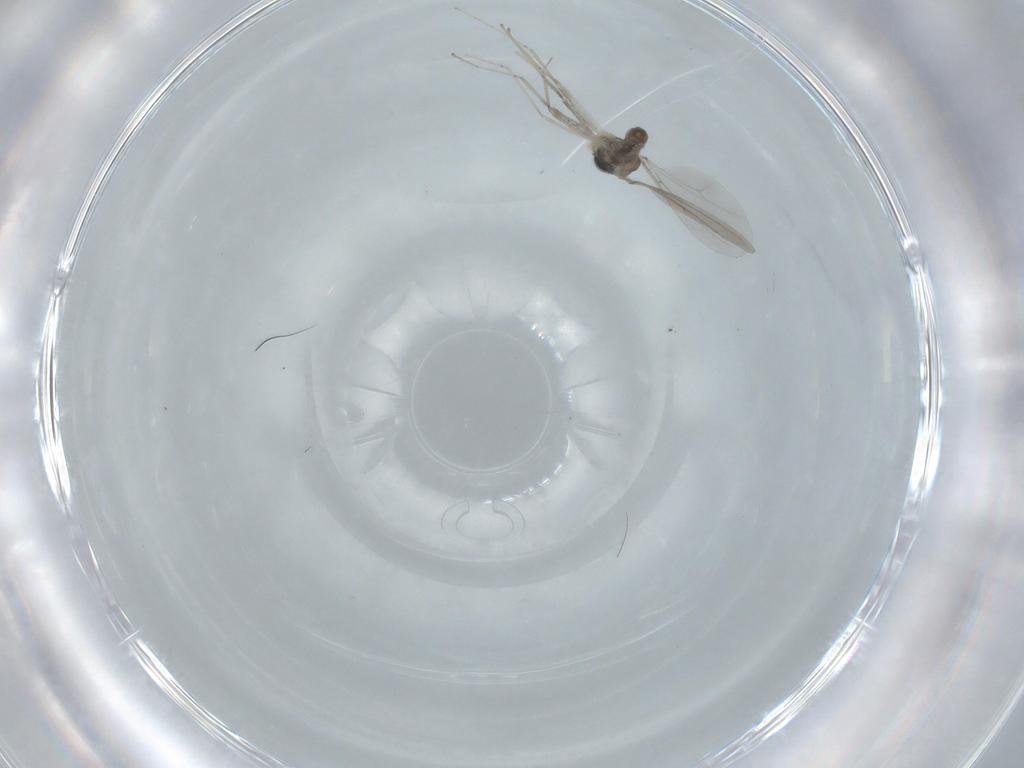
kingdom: Animalia
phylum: Arthropoda
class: Insecta
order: Diptera
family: Cecidomyiidae
